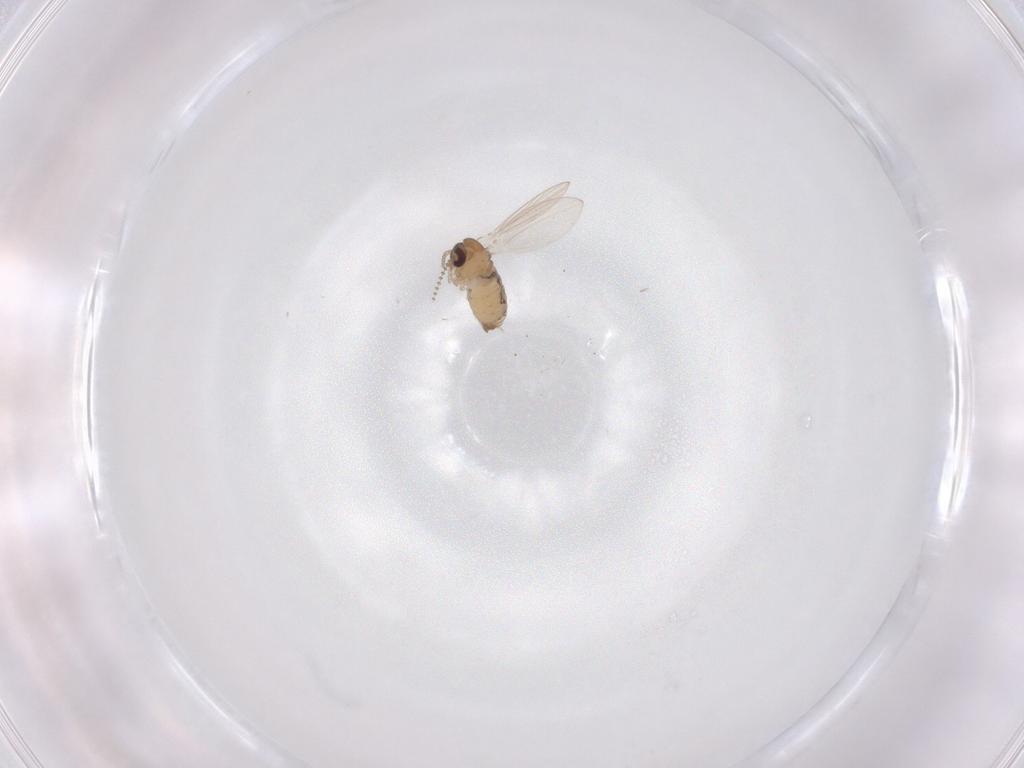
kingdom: Animalia
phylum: Arthropoda
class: Insecta
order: Diptera
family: Psychodidae
